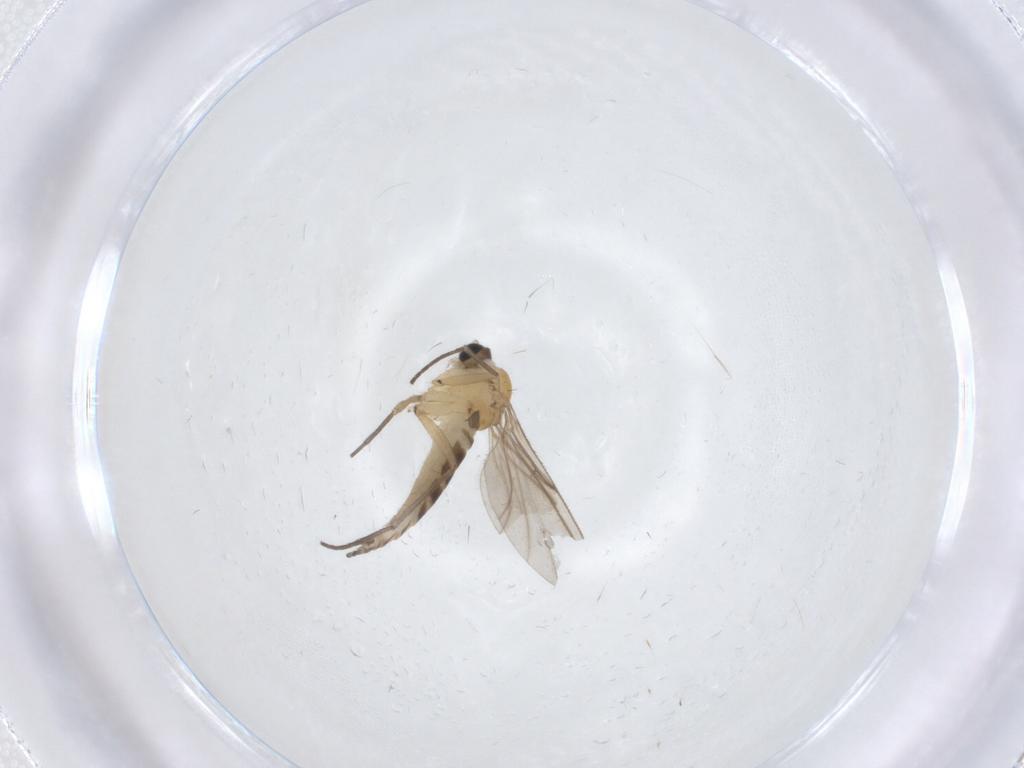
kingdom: Animalia
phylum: Arthropoda
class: Insecta
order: Diptera
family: Sciaridae
